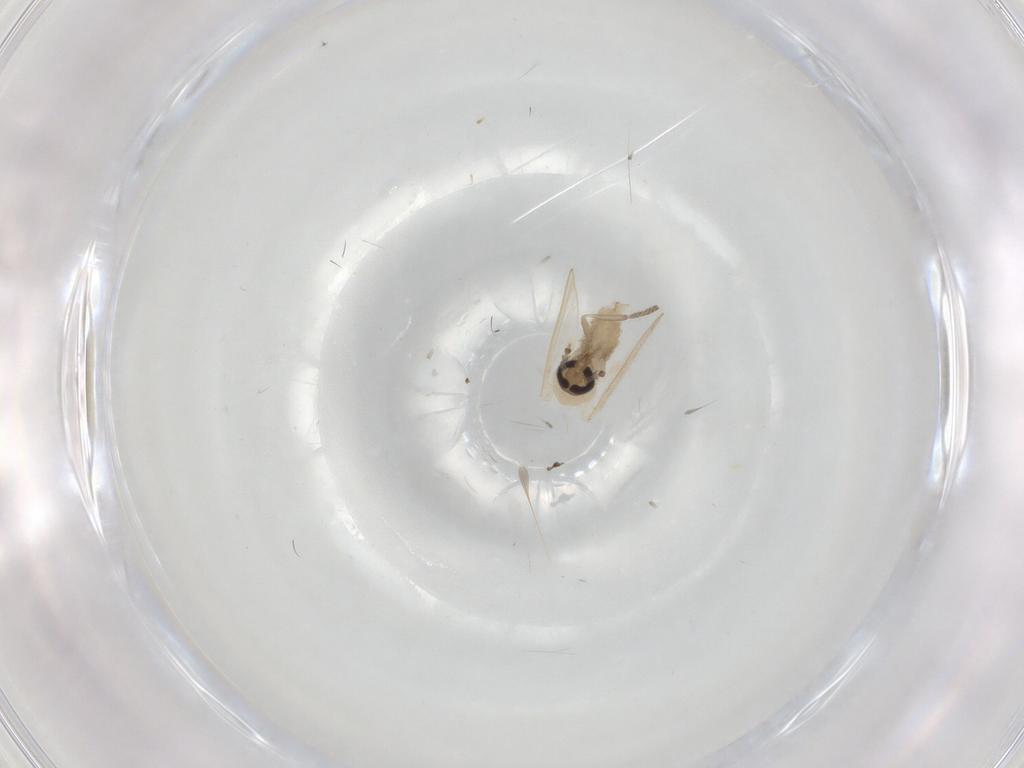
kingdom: Animalia
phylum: Arthropoda
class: Insecta
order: Diptera
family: Psychodidae
